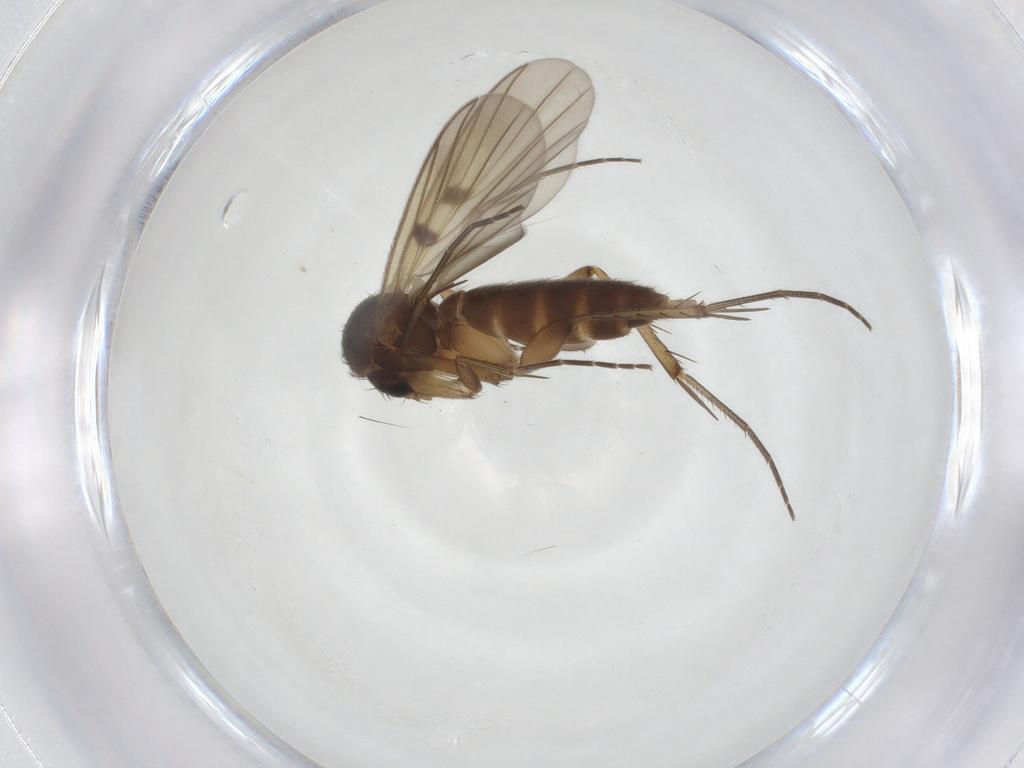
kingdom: Animalia
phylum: Arthropoda
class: Insecta
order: Diptera
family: Mycetophilidae
